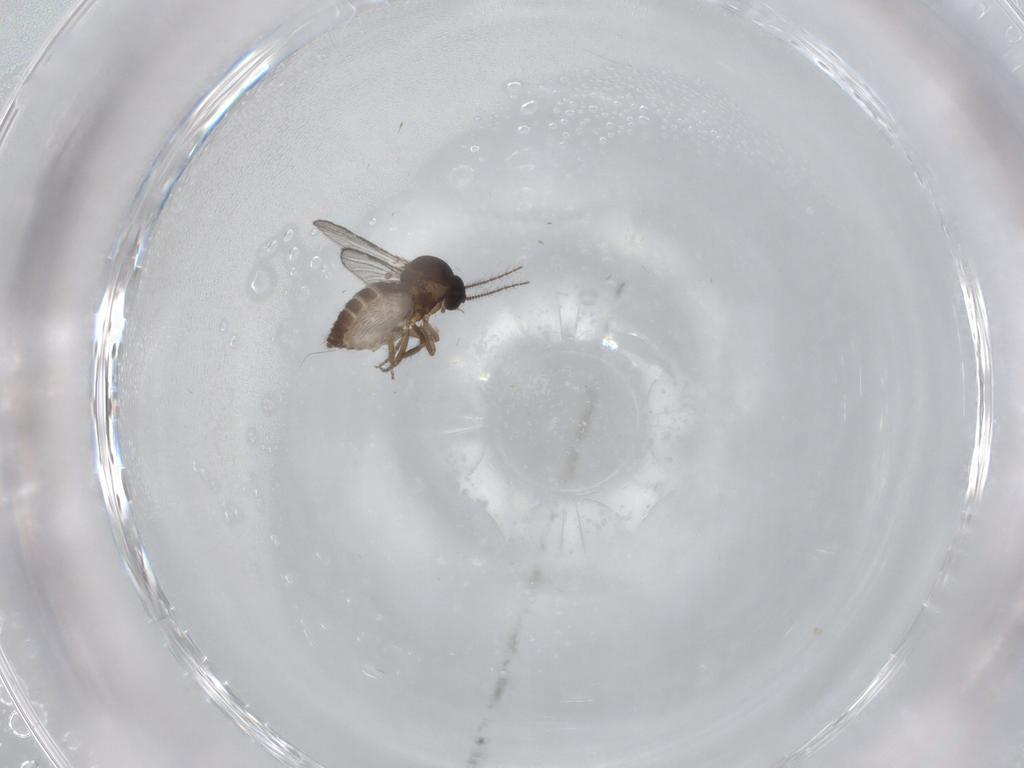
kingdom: Animalia
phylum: Arthropoda
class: Insecta
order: Diptera
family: Ceratopogonidae
